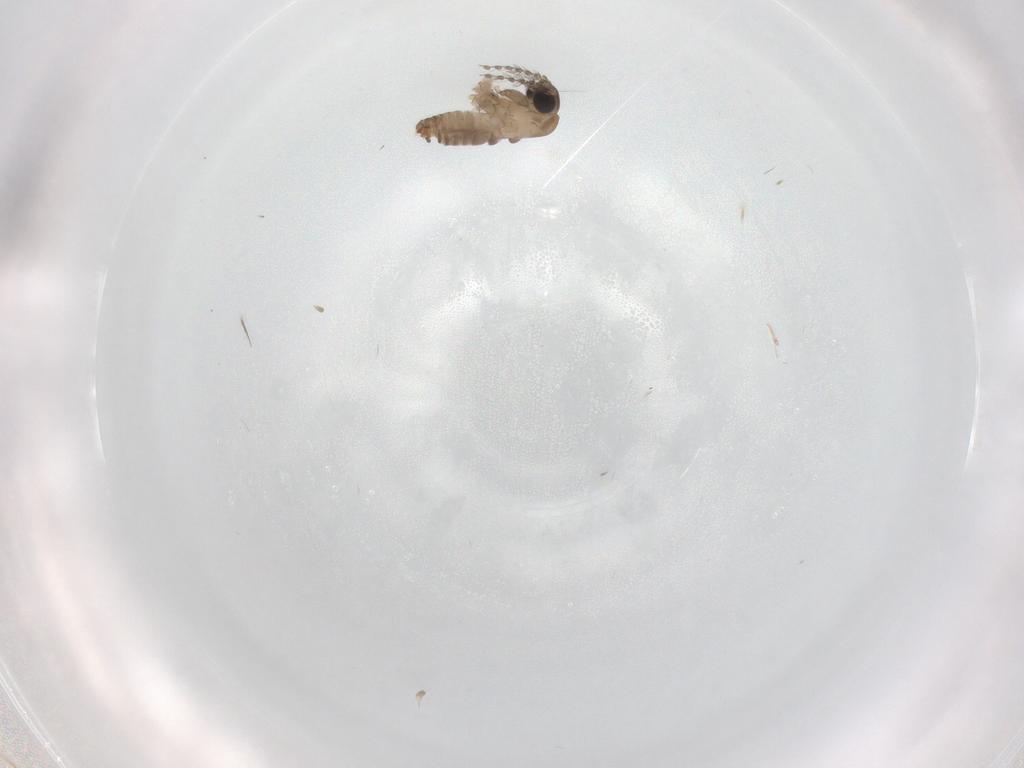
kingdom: Animalia
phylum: Arthropoda
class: Insecta
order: Diptera
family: Psychodidae
